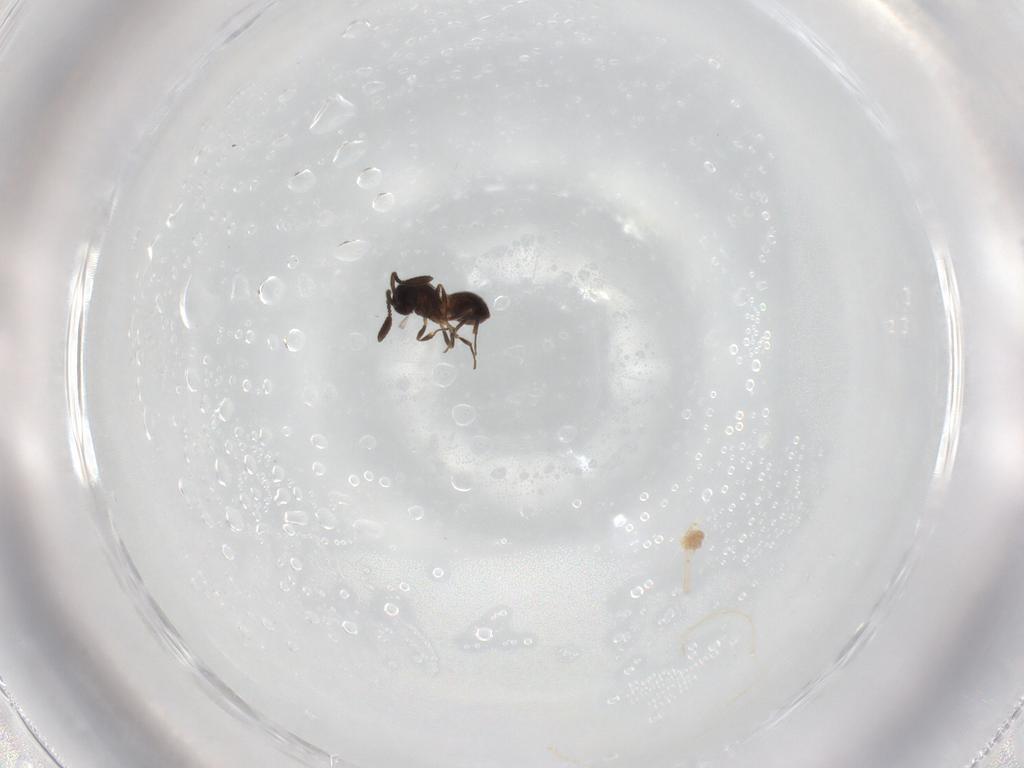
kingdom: Animalia
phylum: Arthropoda
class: Insecta
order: Hymenoptera
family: Scelionidae
